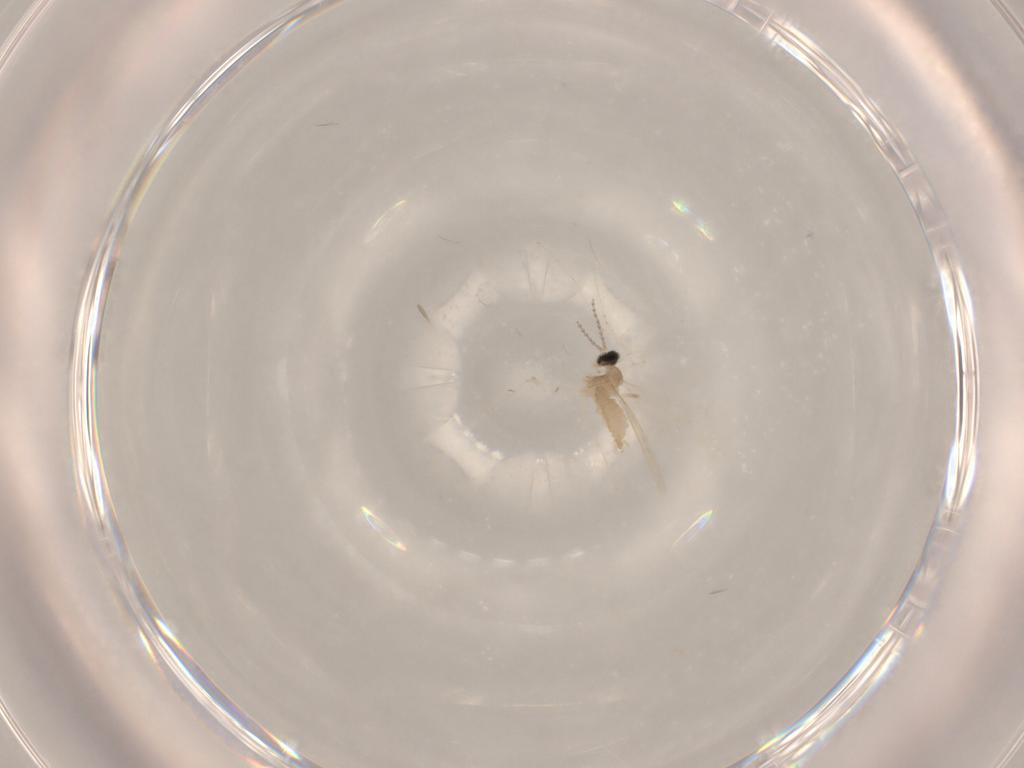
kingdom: Animalia
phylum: Arthropoda
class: Insecta
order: Diptera
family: Cecidomyiidae
